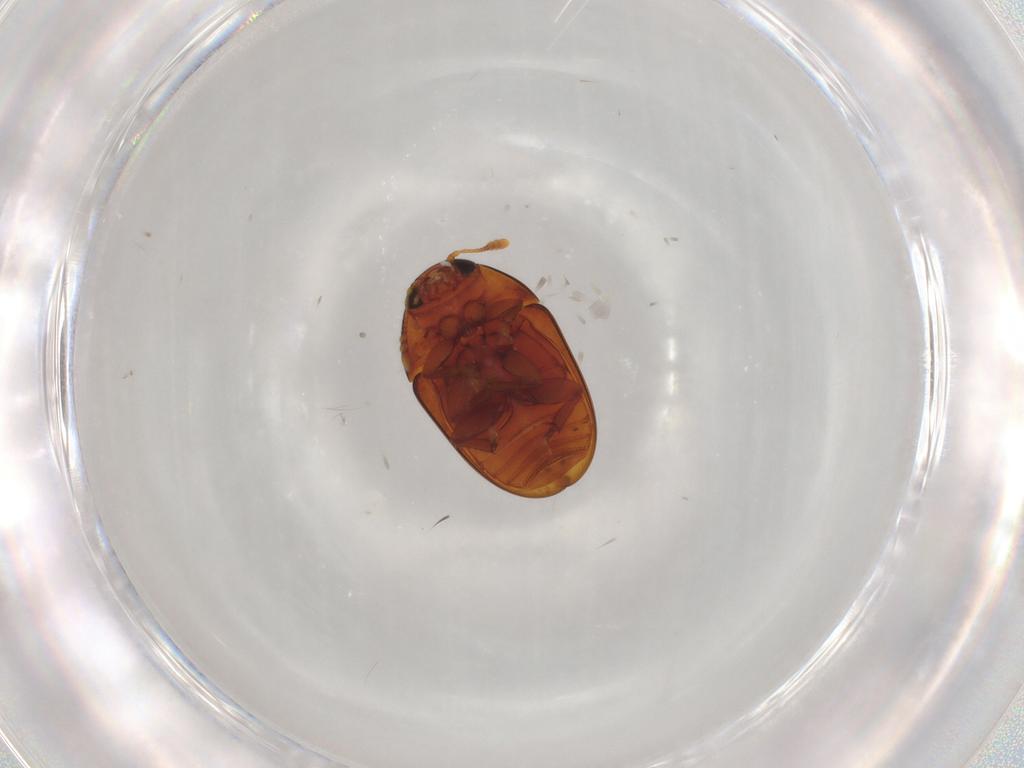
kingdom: Animalia
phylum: Arthropoda
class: Insecta
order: Coleoptera
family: Phalacridae
